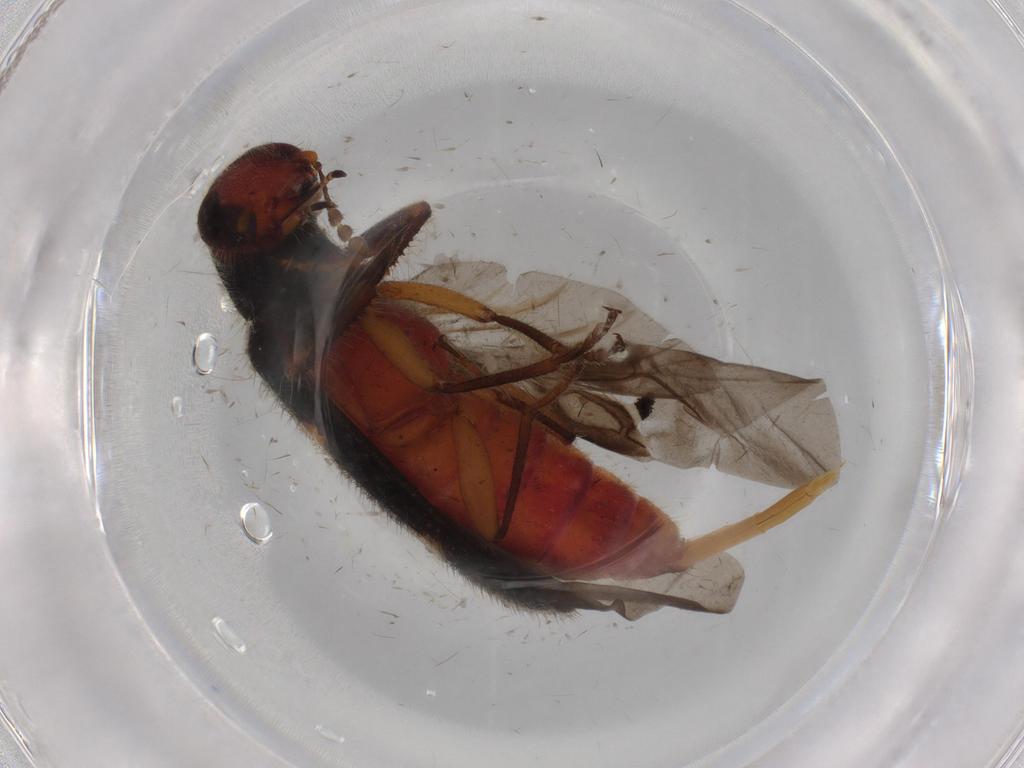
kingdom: Animalia
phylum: Arthropoda
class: Insecta
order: Coleoptera
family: Cleridae
